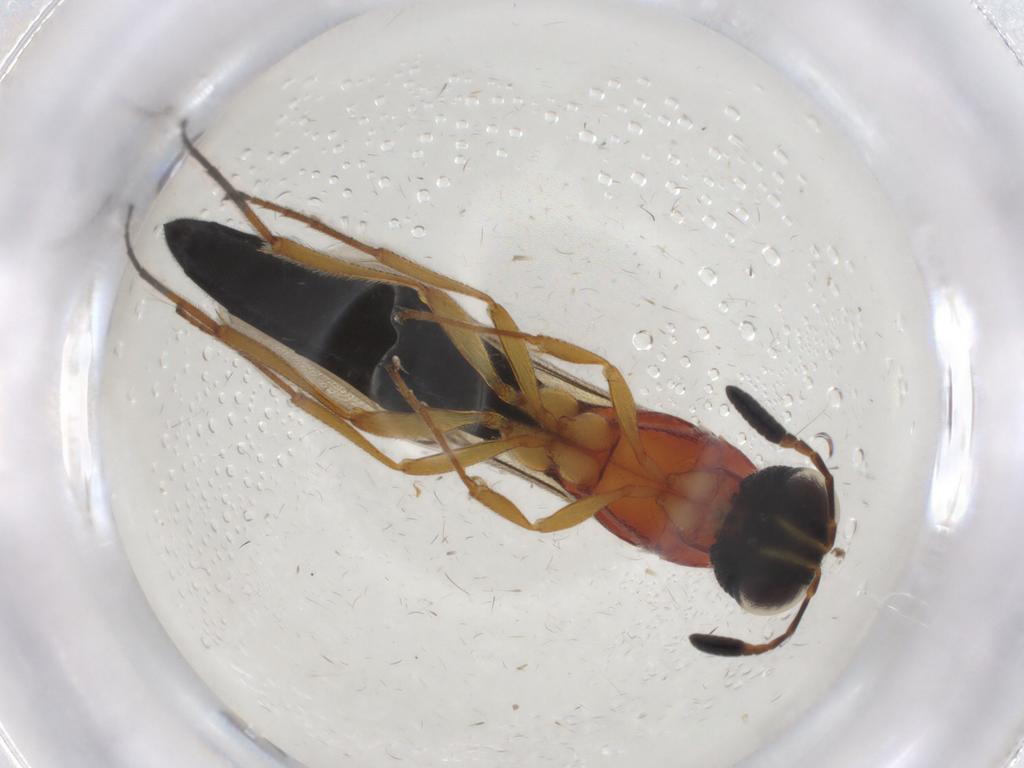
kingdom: Animalia
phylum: Arthropoda
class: Insecta
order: Hymenoptera
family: Scelionidae
